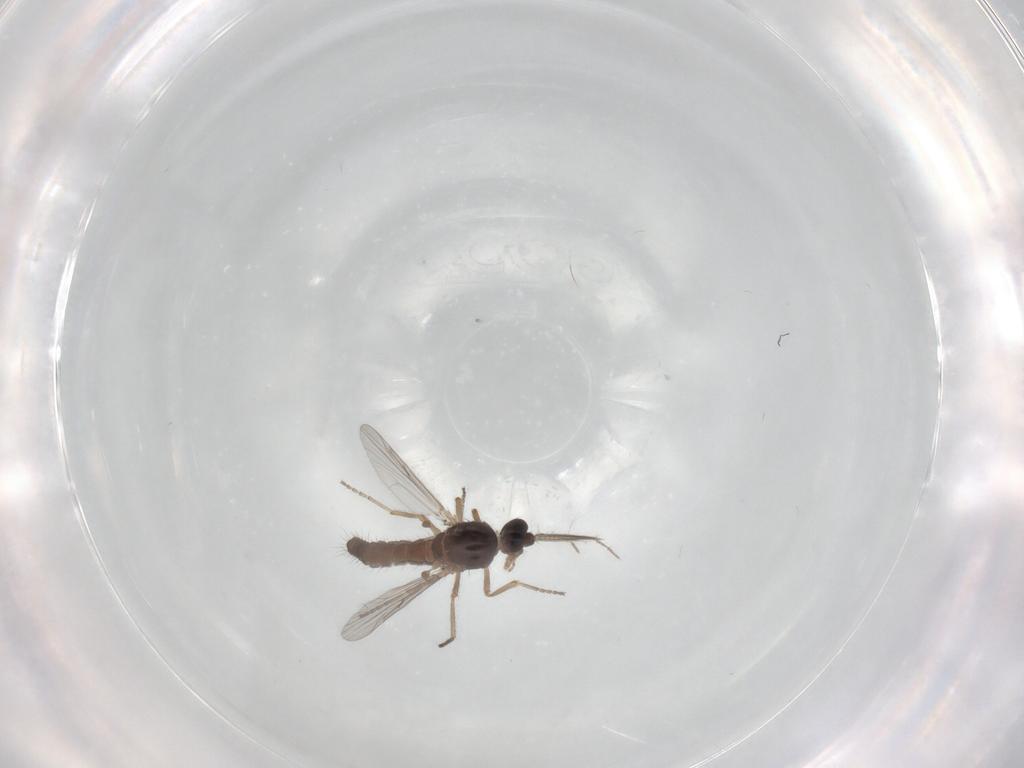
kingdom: Animalia
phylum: Arthropoda
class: Insecta
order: Diptera
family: Ceratopogonidae
